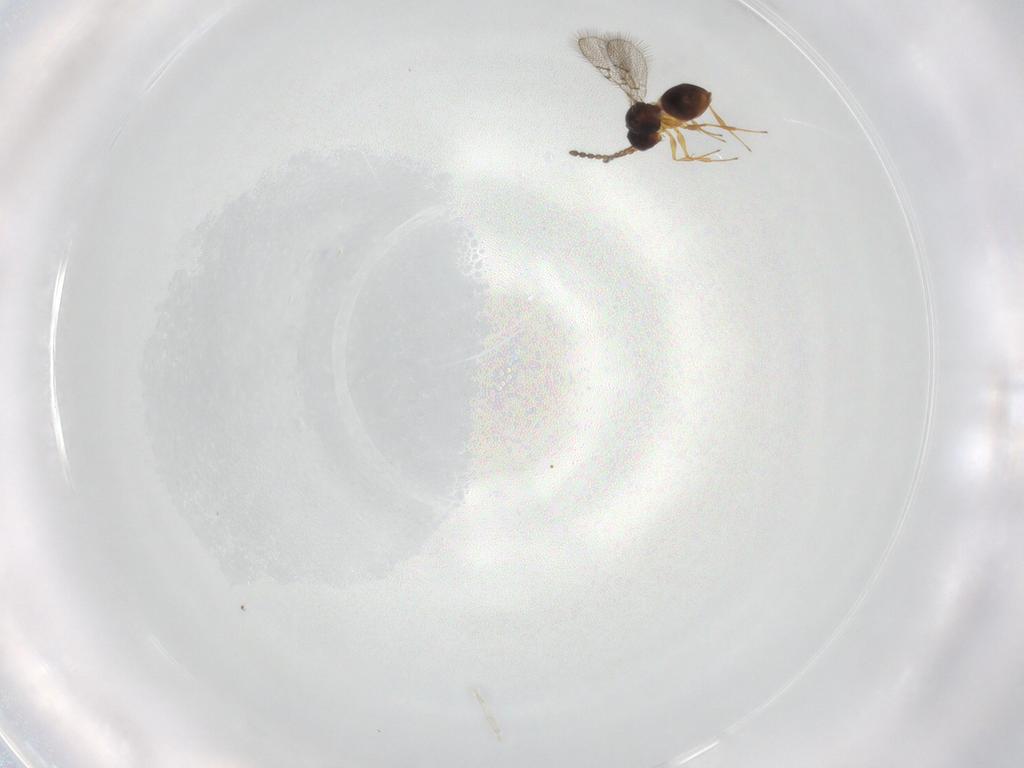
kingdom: Animalia
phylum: Arthropoda
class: Insecta
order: Hymenoptera
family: Figitidae
